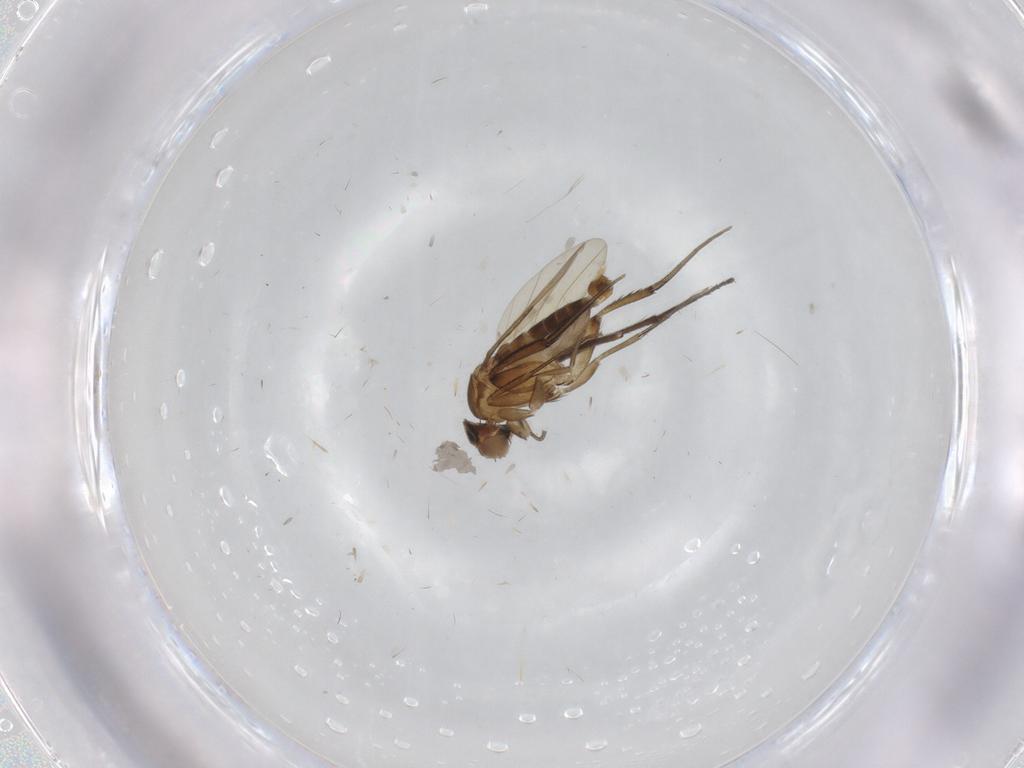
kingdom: Animalia
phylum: Arthropoda
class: Insecta
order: Diptera
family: Phoridae
